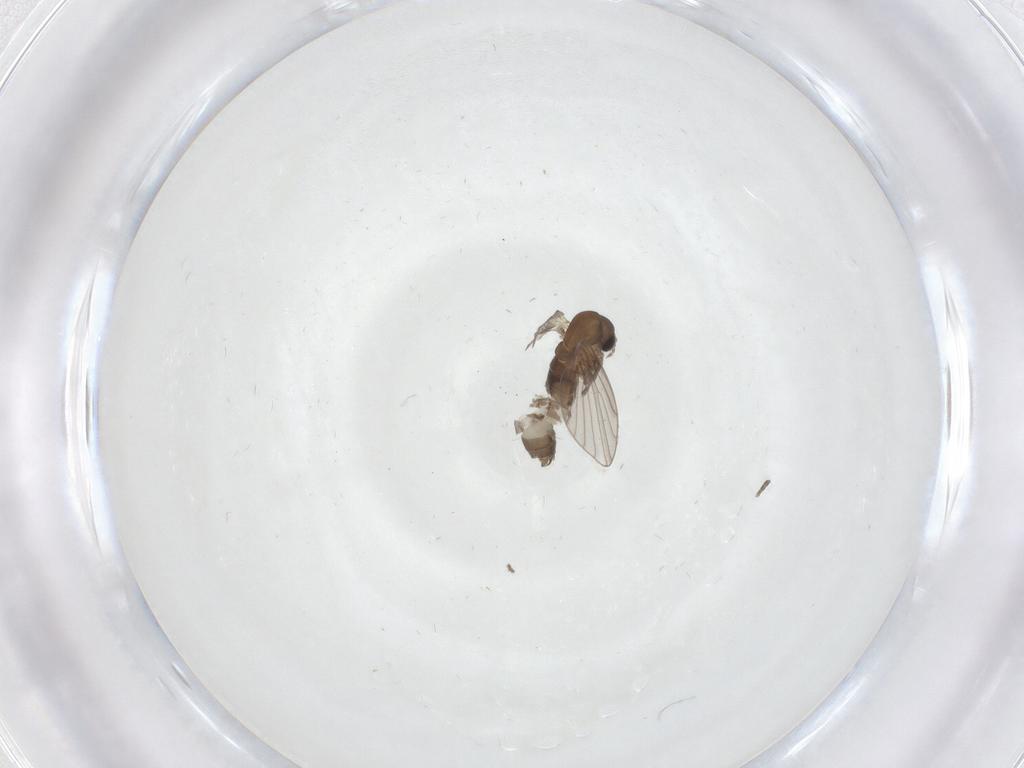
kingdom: Animalia
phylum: Arthropoda
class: Insecta
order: Diptera
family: Psychodidae
